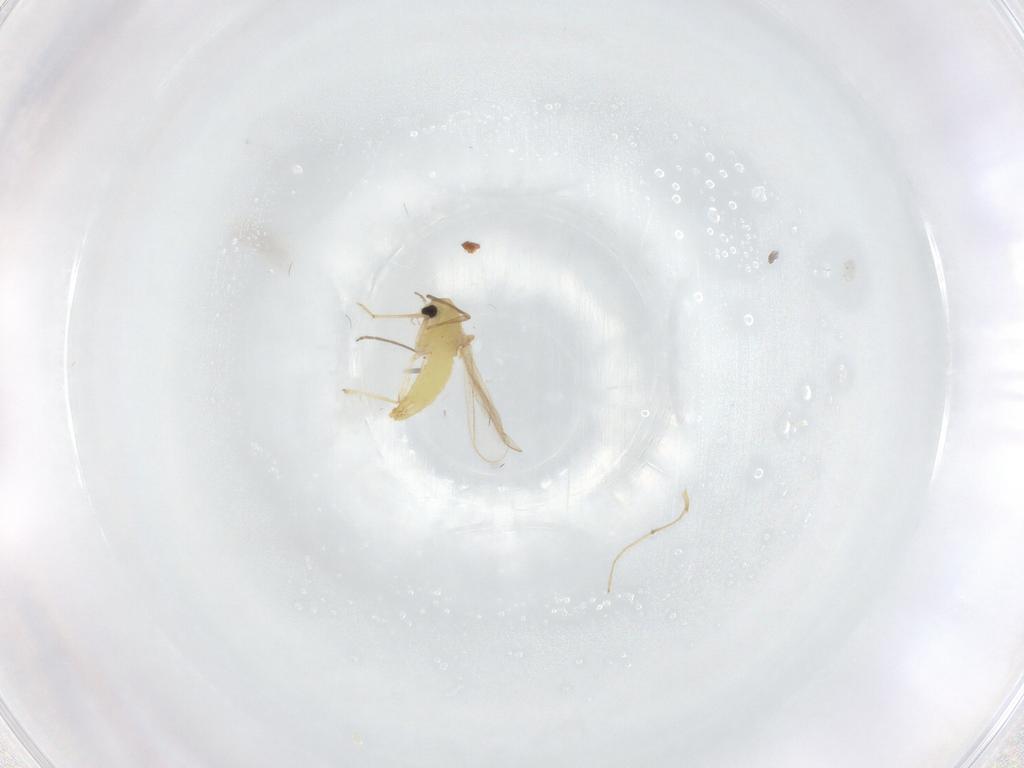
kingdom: Animalia
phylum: Arthropoda
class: Insecta
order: Diptera
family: Chironomidae
